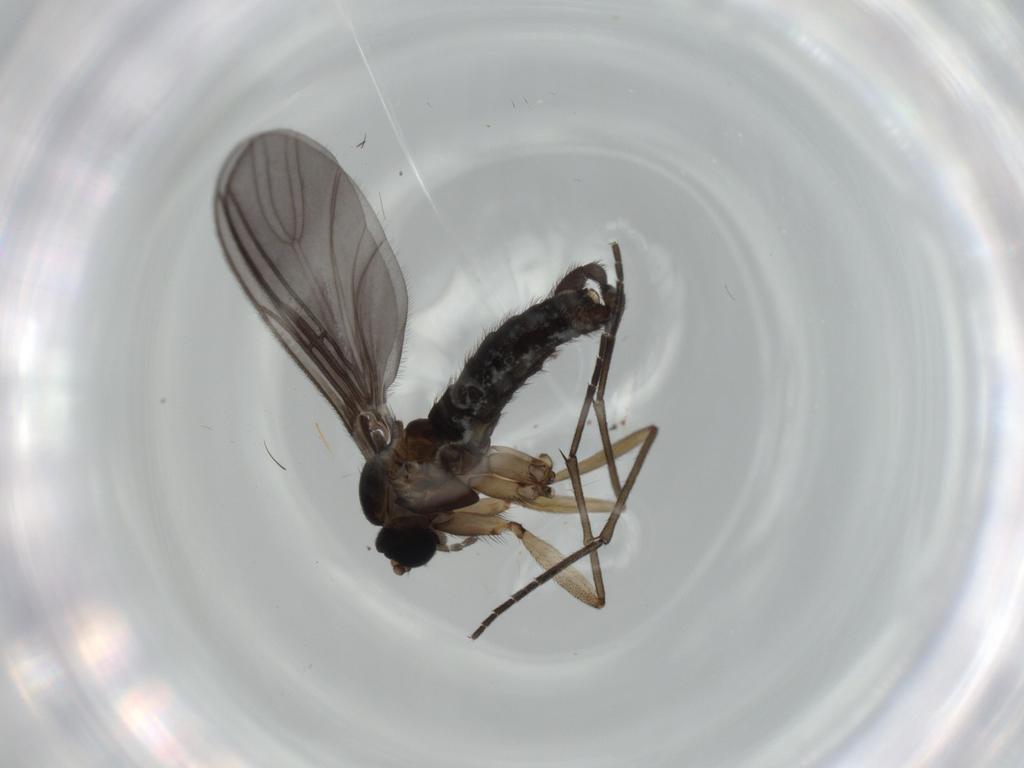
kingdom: Animalia
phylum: Arthropoda
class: Insecta
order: Diptera
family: Sciaridae
